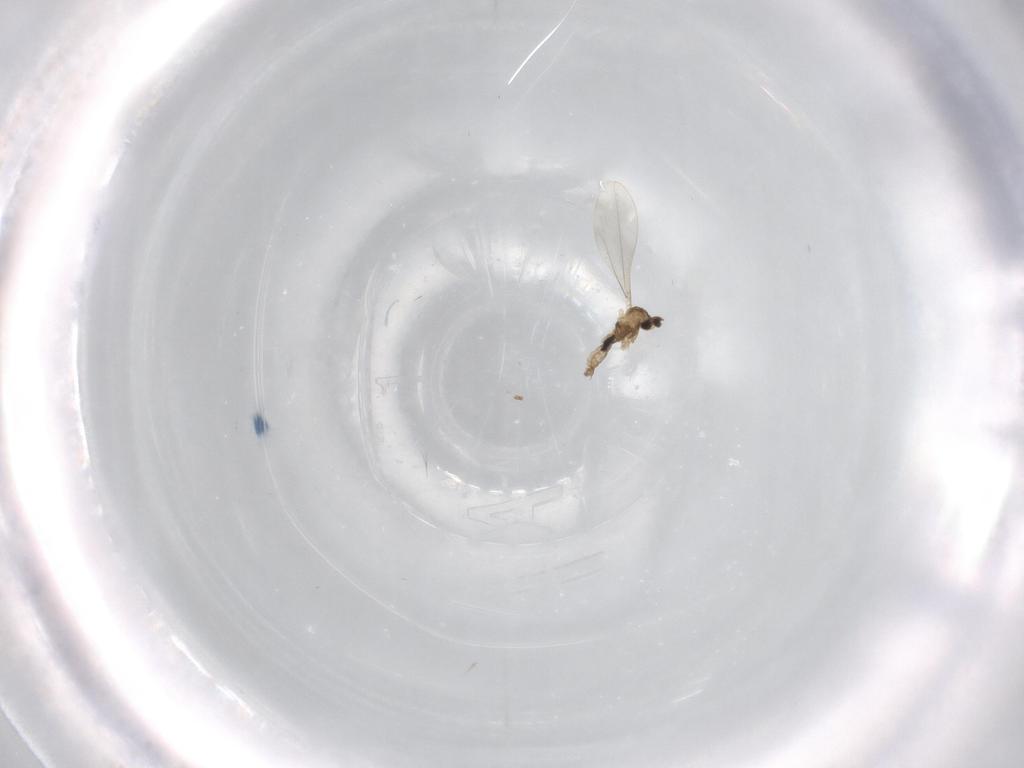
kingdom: Animalia
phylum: Arthropoda
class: Insecta
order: Diptera
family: Cecidomyiidae
